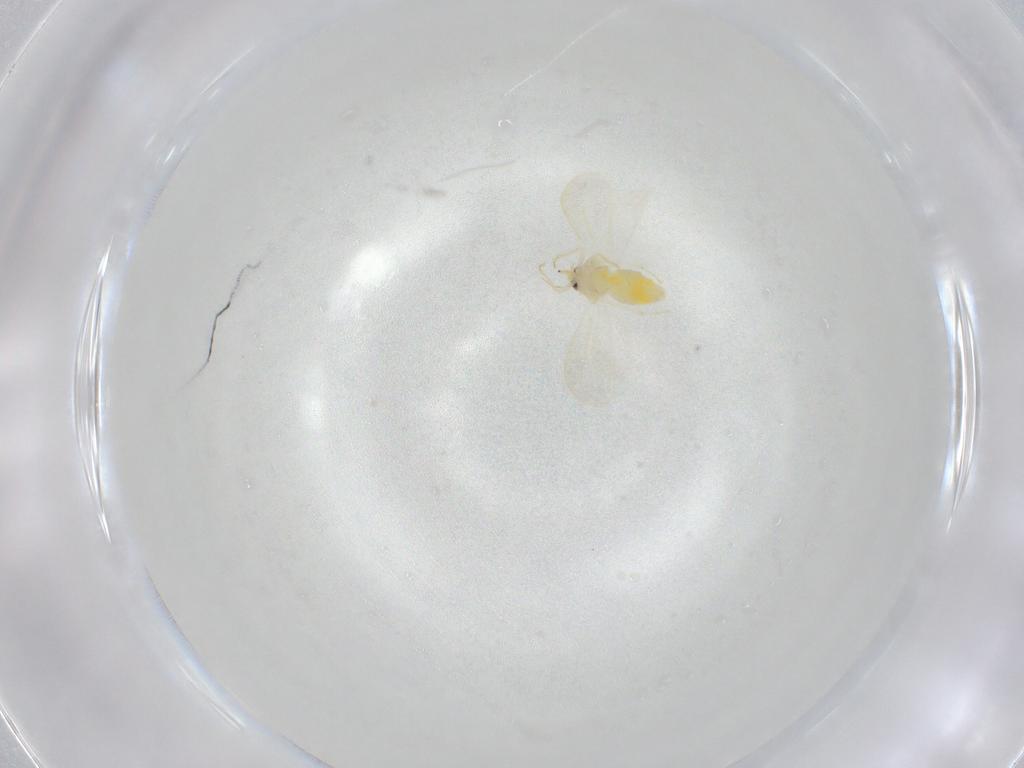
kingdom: Animalia
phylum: Arthropoda
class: Insecta
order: Hemiptera
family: Aleyrodidae
